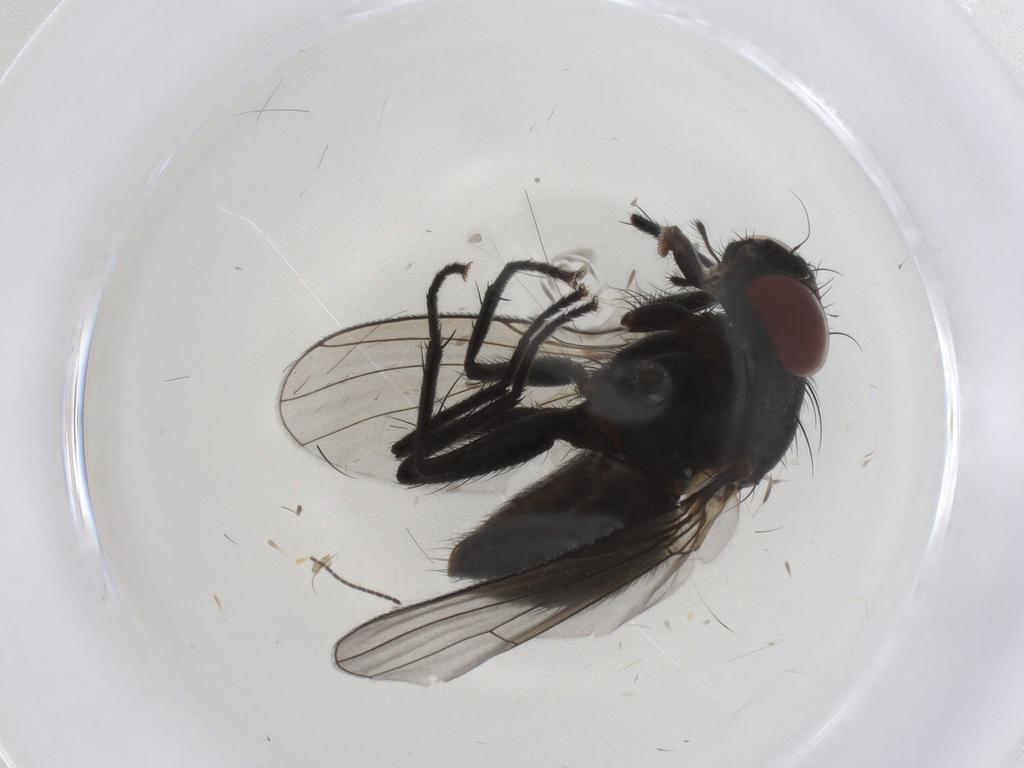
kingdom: Animalia
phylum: Arthropoda
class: Insecta
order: Diptera
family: Muscidae
